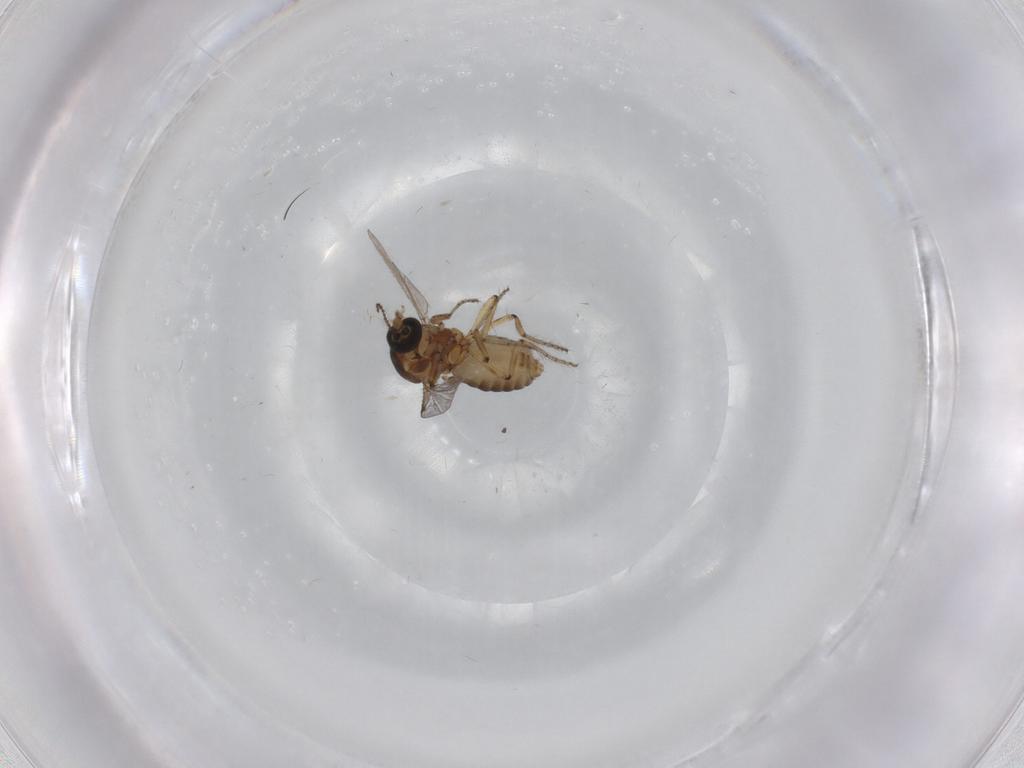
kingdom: Animalia
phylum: Arthropoda
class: Insecta
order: Diptera
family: Ceratopogonidae
